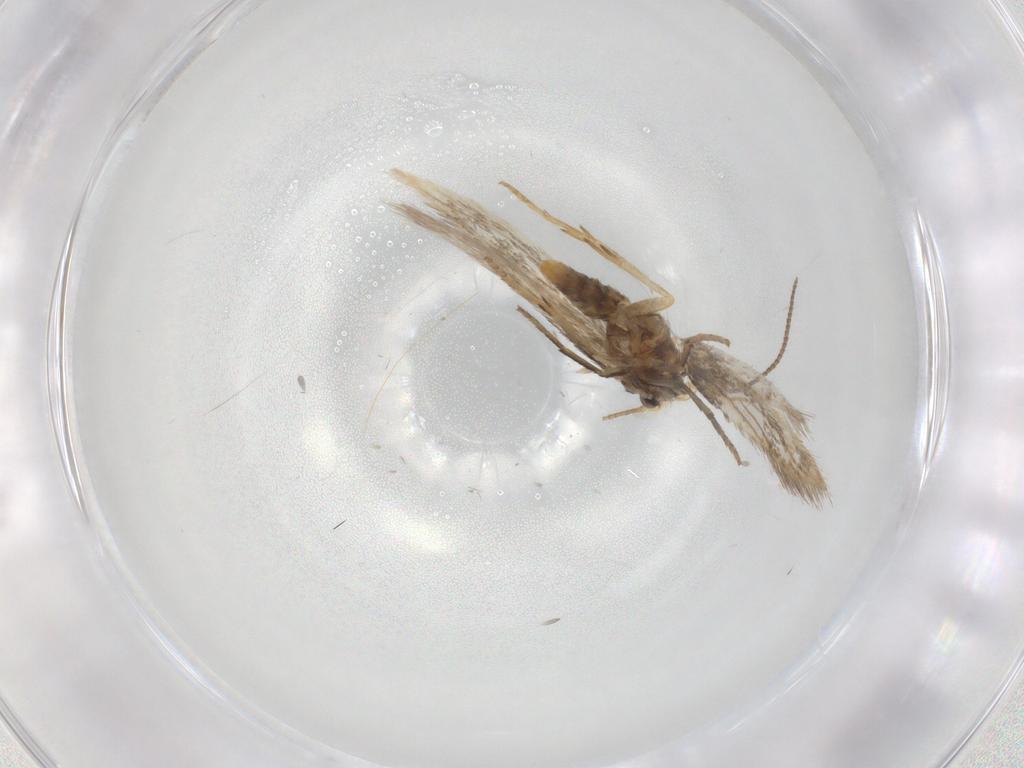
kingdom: Animalia
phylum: Arthropoda
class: Insecta
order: Lepidoptera
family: Nepticulidae
